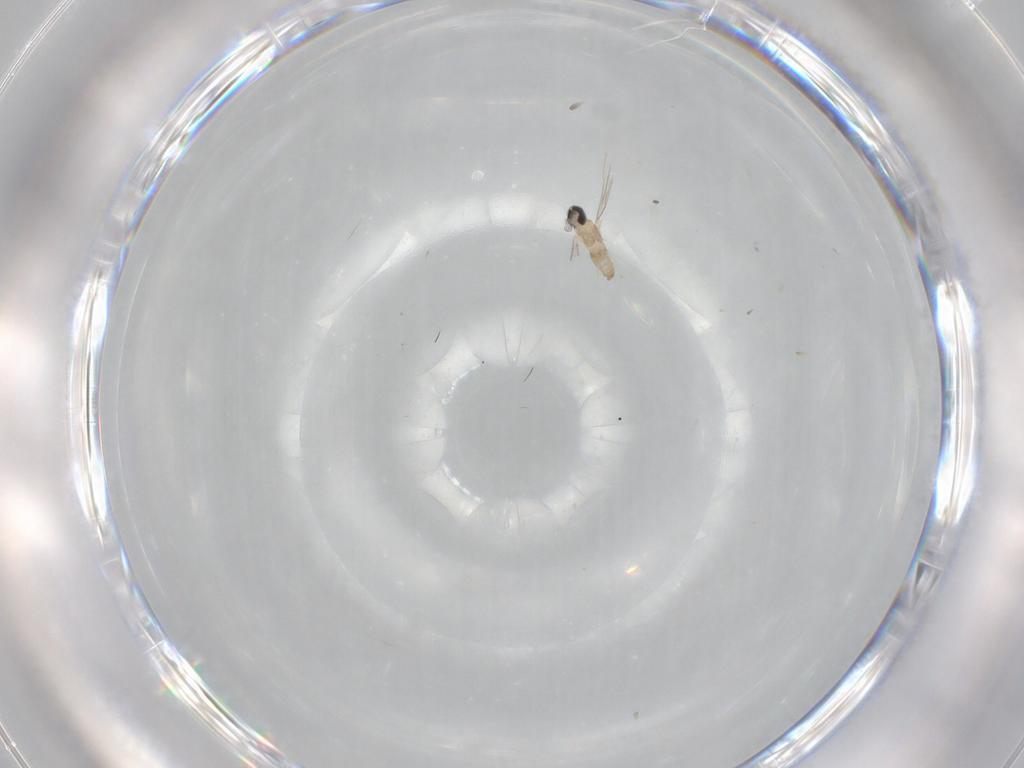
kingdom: Animalia
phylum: Arthropoda
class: Insecta
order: Diptera
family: Cecidomyiidae
